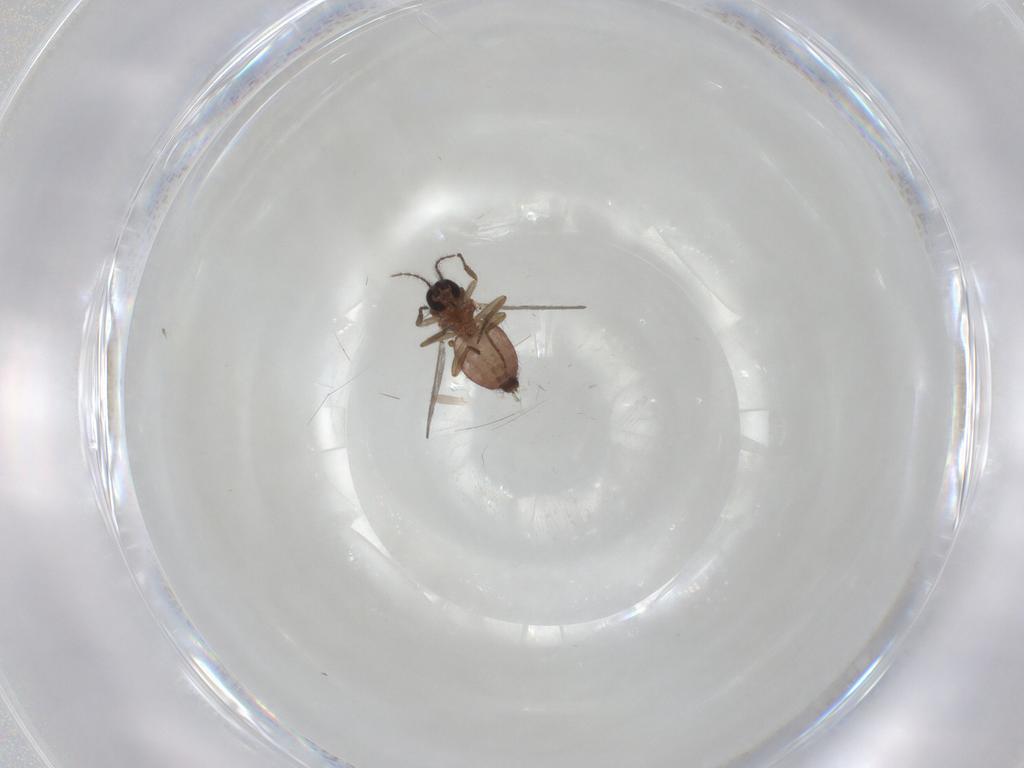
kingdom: Animalia
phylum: Arthropoda
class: Insecta
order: Diptera
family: Ceratopogonidae
